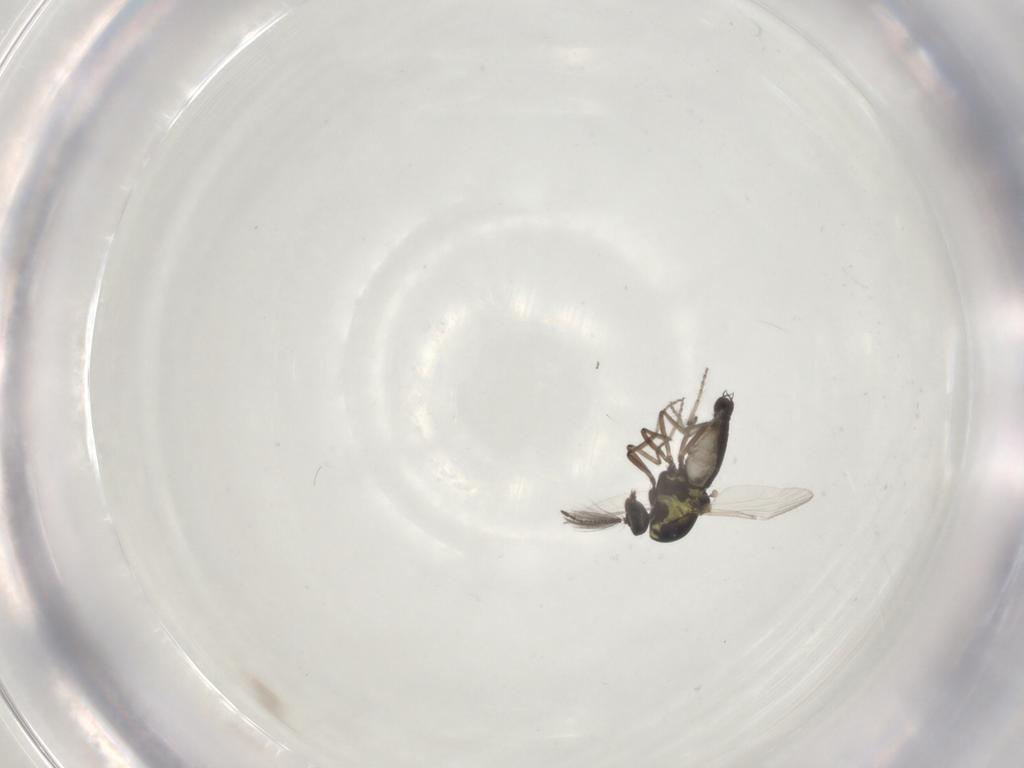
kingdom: Animalia
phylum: Arthropoda
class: Insecta
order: Diptera
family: Ceratopogonidae
